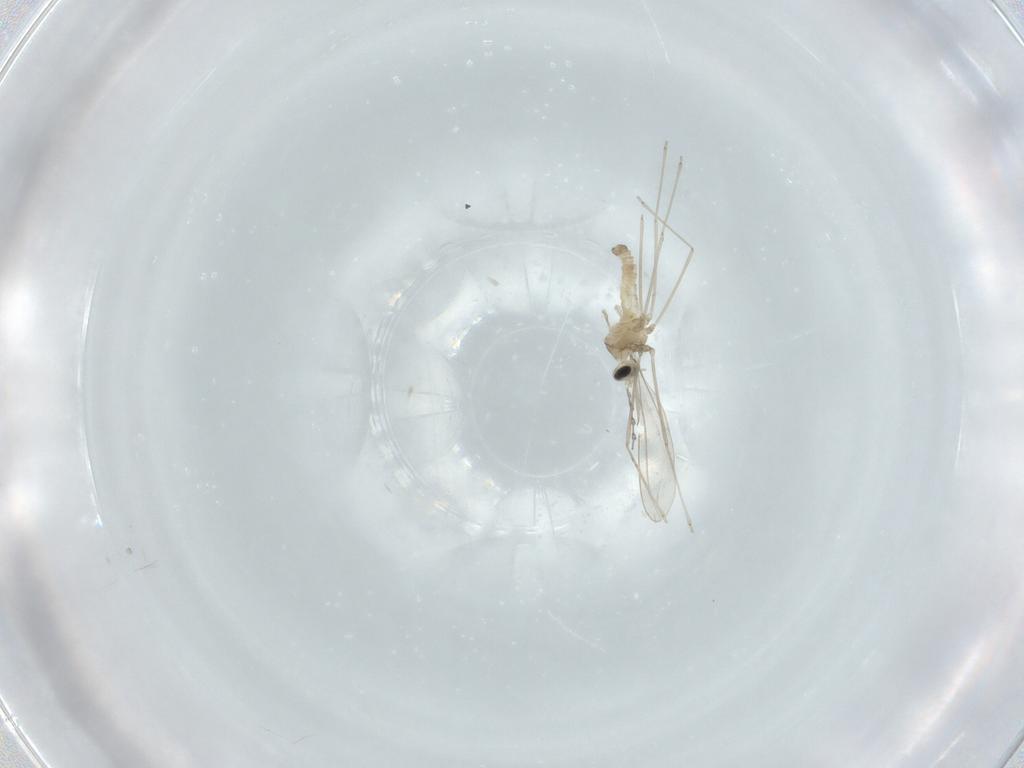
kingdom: Animalia
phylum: Arthropoda
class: Insecta
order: Diptera
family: Cecidomyiidae
